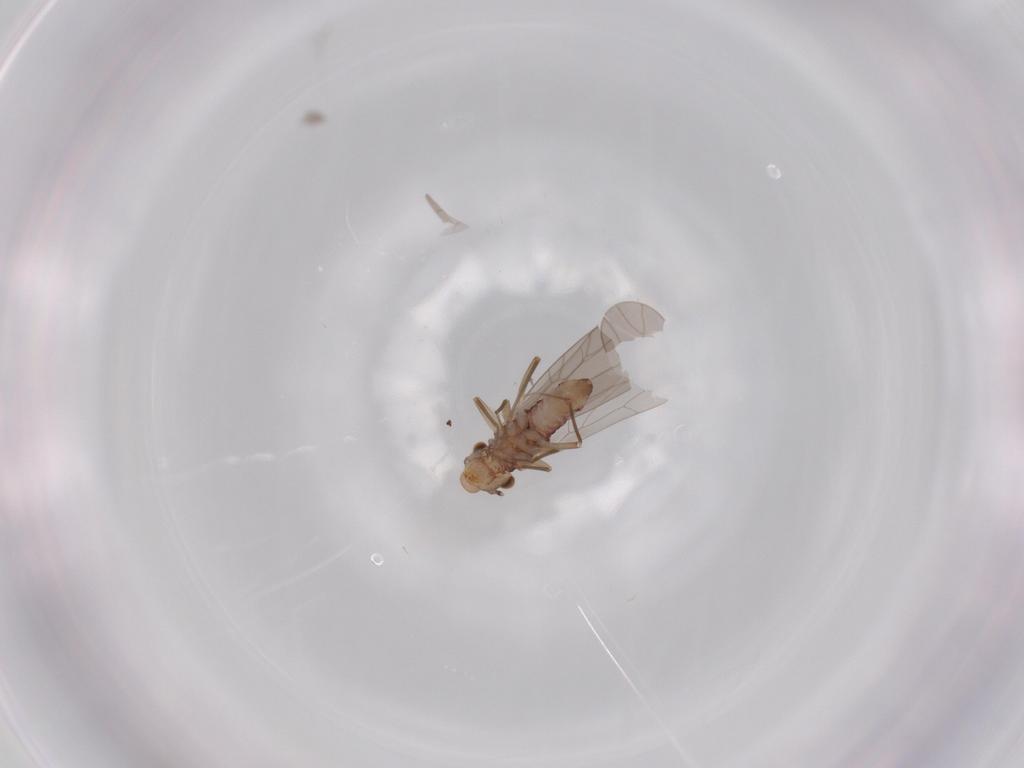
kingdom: Animalia
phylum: Arthropoda
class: Insecta
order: Psocodea
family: Lepidopsocidae
